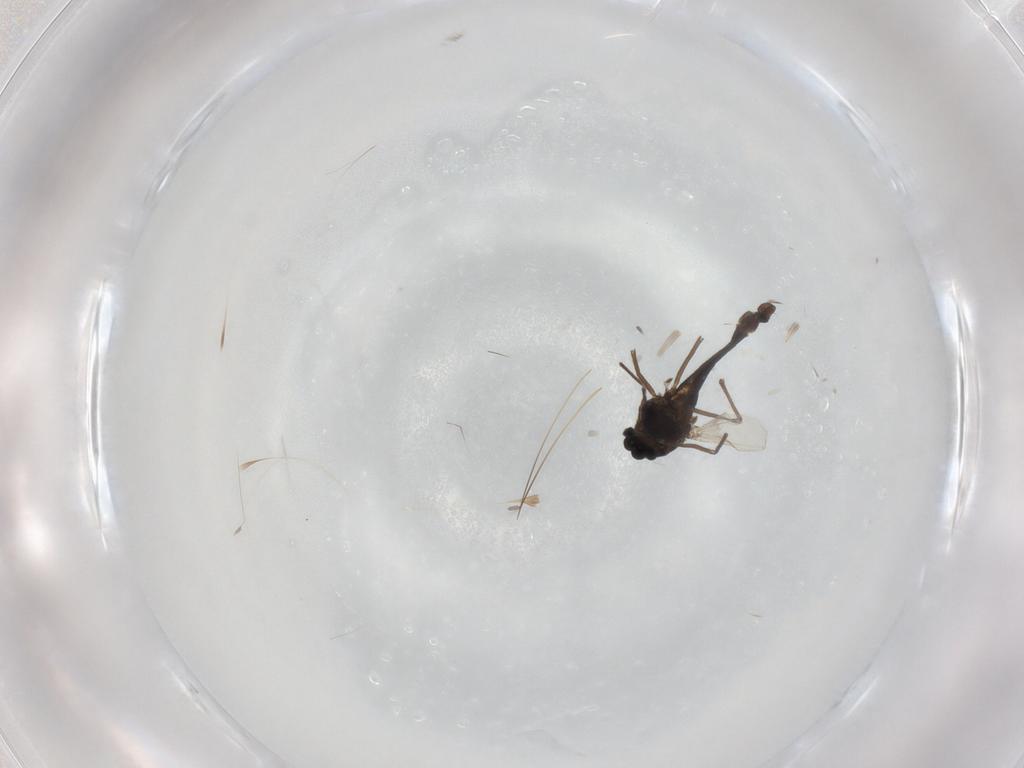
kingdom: Animalia
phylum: Arthropoda
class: Insecta
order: Diptera
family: Chironomidae
